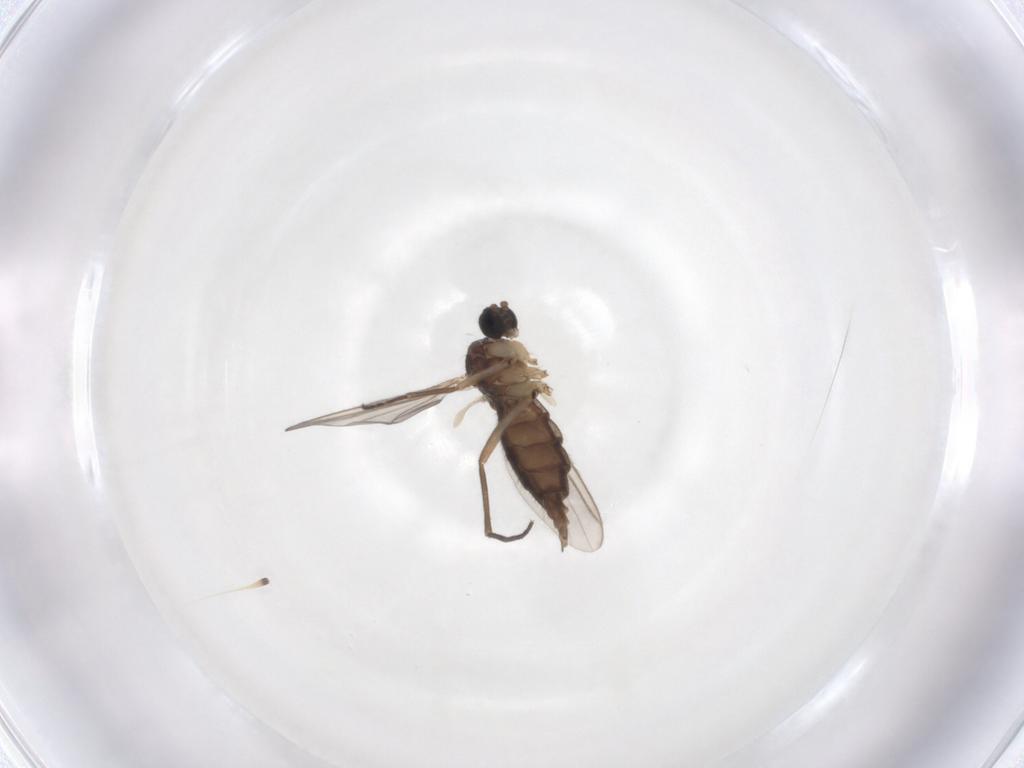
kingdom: Animalia
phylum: Arthropoda
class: Insecta
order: Diptera
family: Sciaridae
